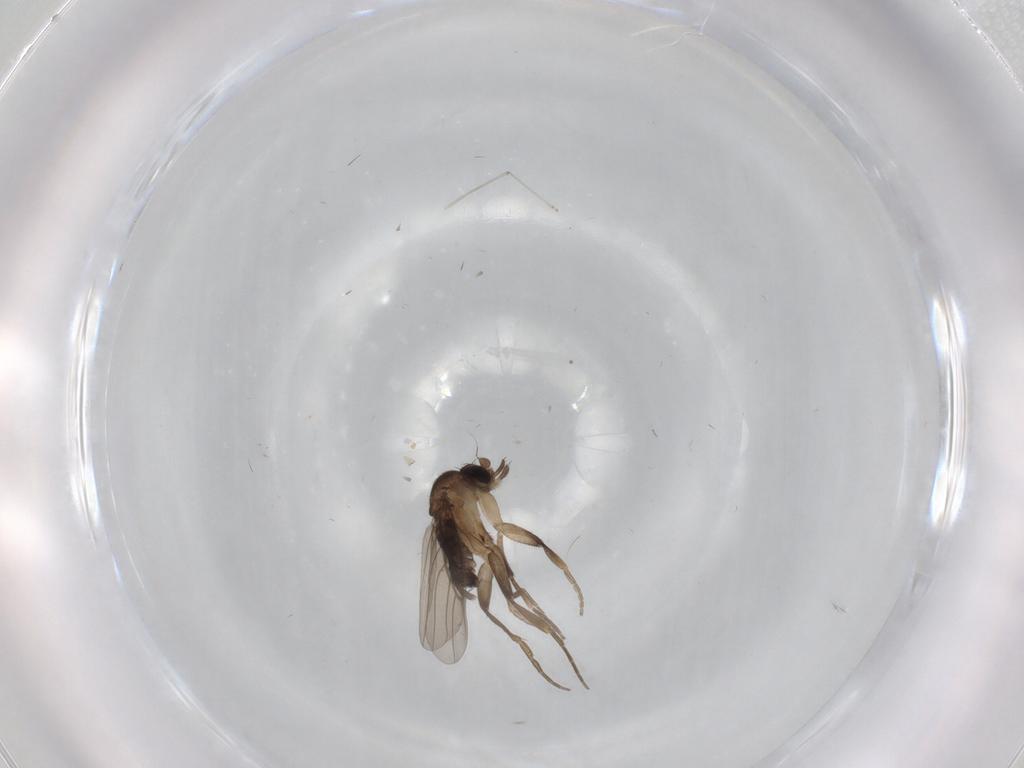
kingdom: Animalia
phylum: Arthropoda
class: Insecta
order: Diptera
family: Phoridae
